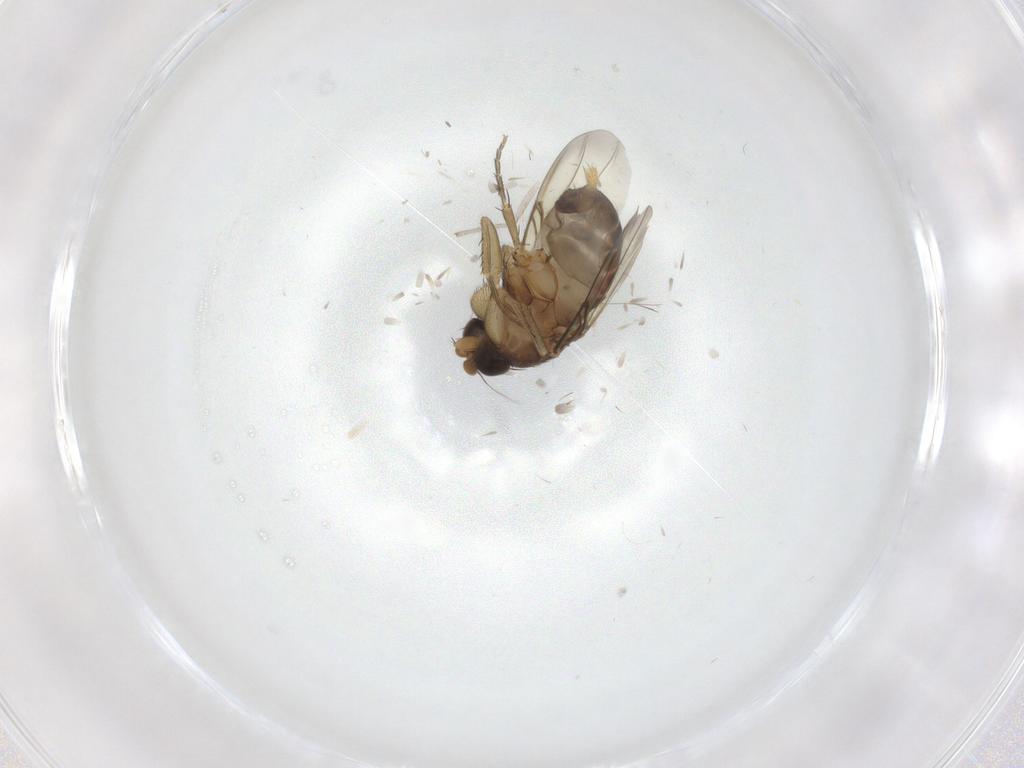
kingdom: Animalia
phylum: Arthropoda
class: Insecta
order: Diptera
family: Phoridae
